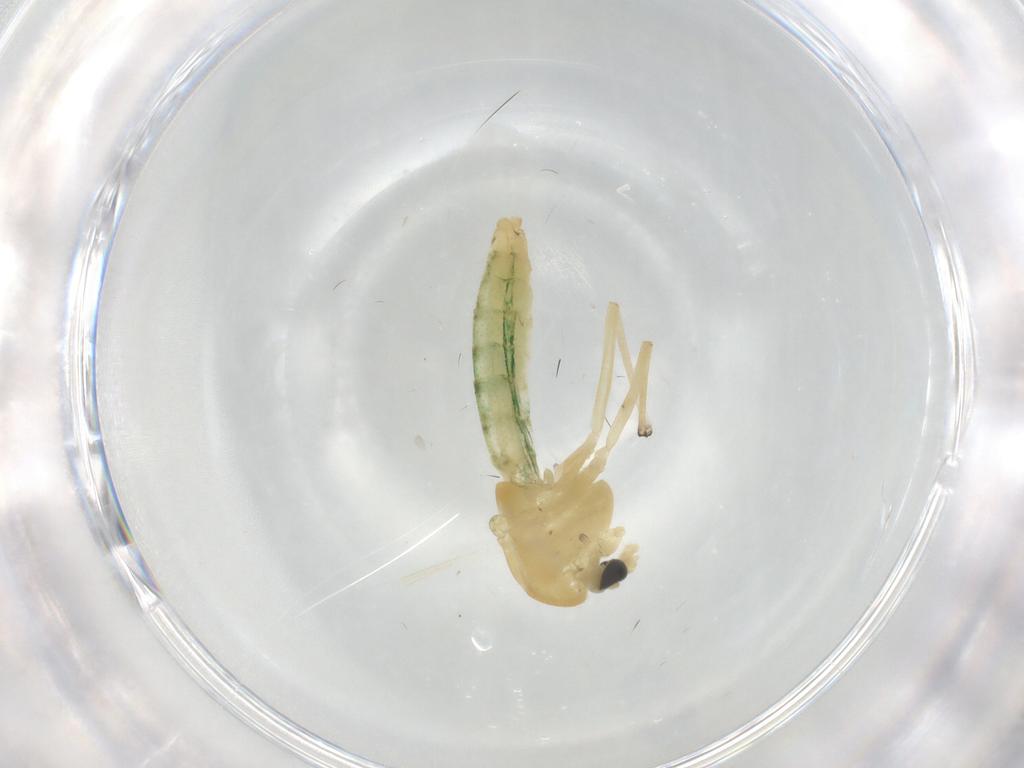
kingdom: Animalia
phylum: Arthropoda
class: Insecta
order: Diptera
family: Chironomidae
